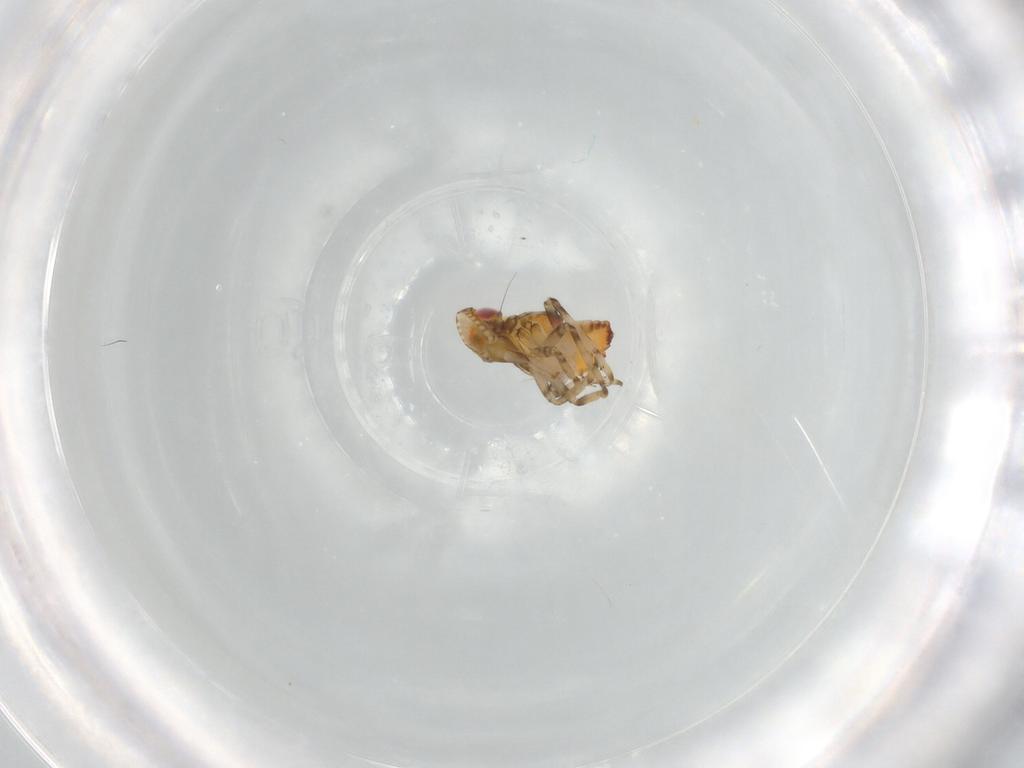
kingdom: Animalia
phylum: Arthropoda
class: Insecta
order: Hemiptera
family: Tropiduchidae
